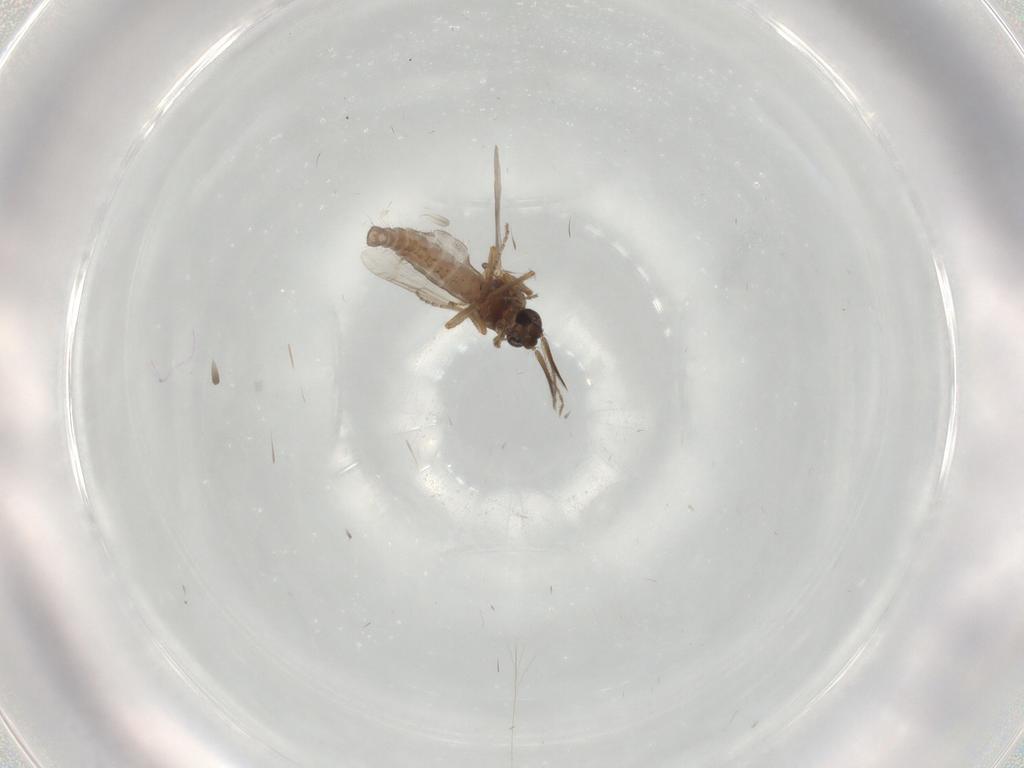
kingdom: Animalia
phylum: Arthropoda
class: Insecta
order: Diptera
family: Ceratopogonidae
